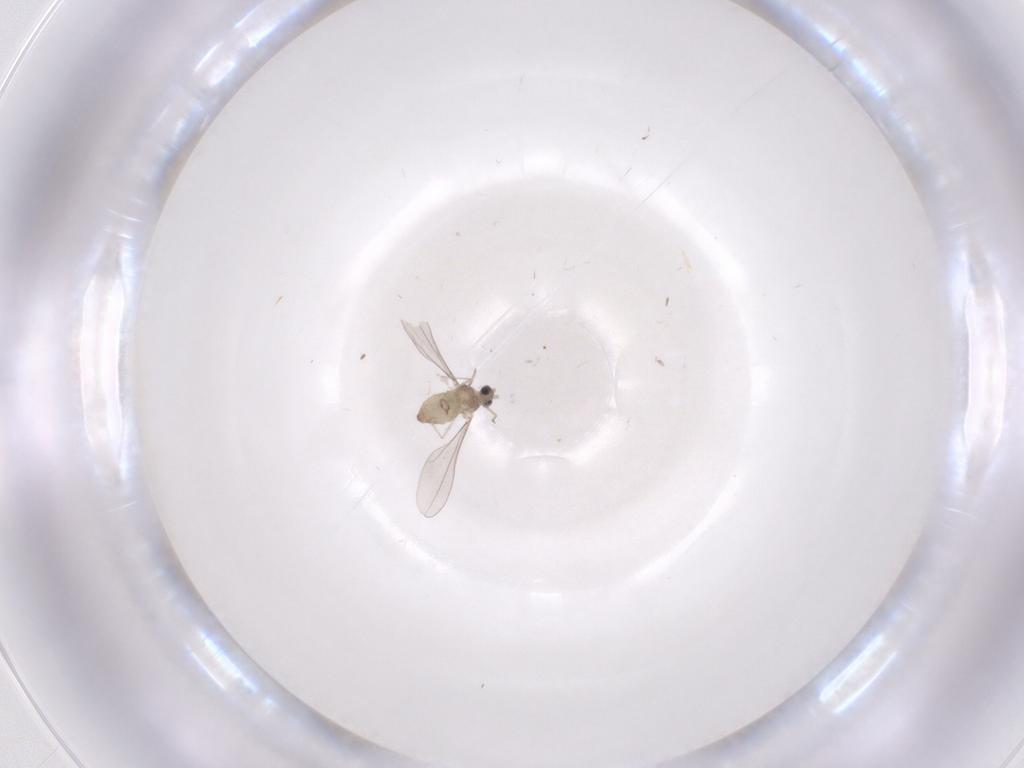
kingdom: Animalia
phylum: Arthropoda
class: Insecta
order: Diptera
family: Cecidomyiidae
